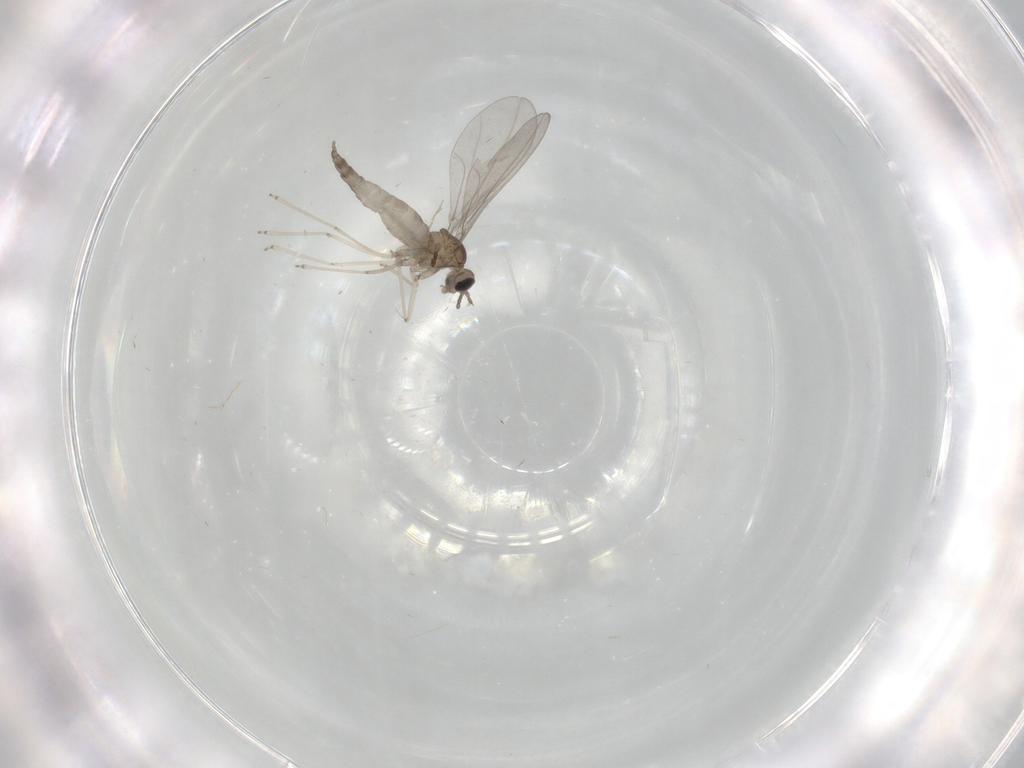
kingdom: Animalia
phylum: Arthropoda
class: Insecta
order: Diptera
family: Cecidomyiidae
